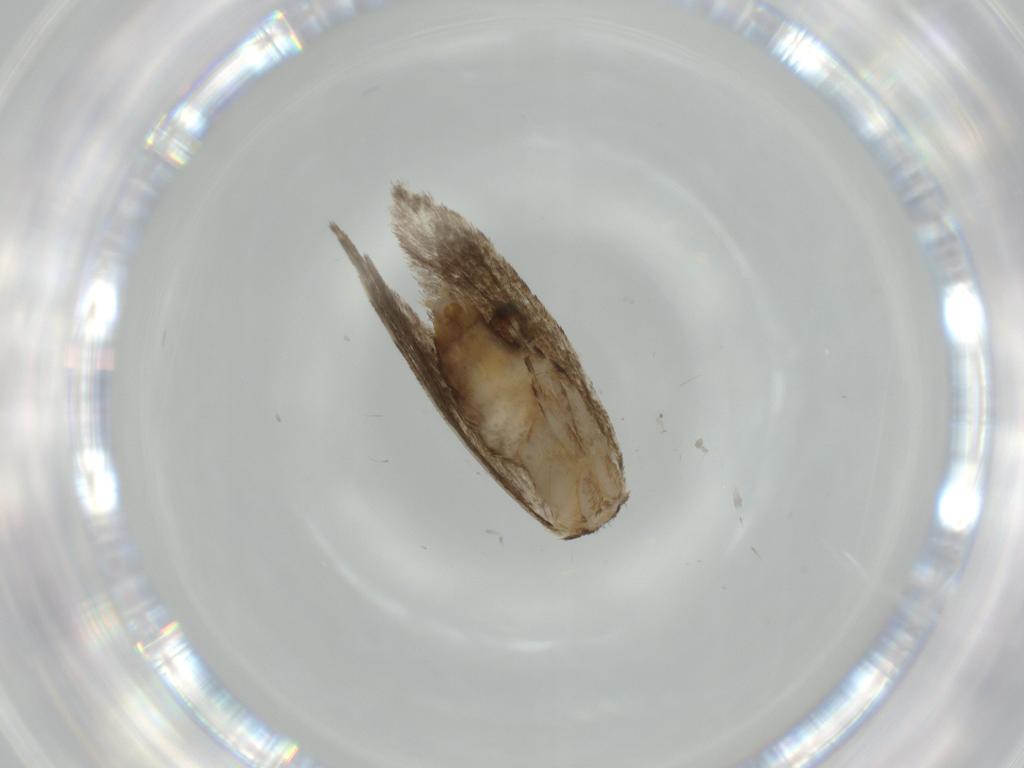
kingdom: Animalia
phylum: Arthropoda
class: Insecta
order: Lepidoptera
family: Tineidae
